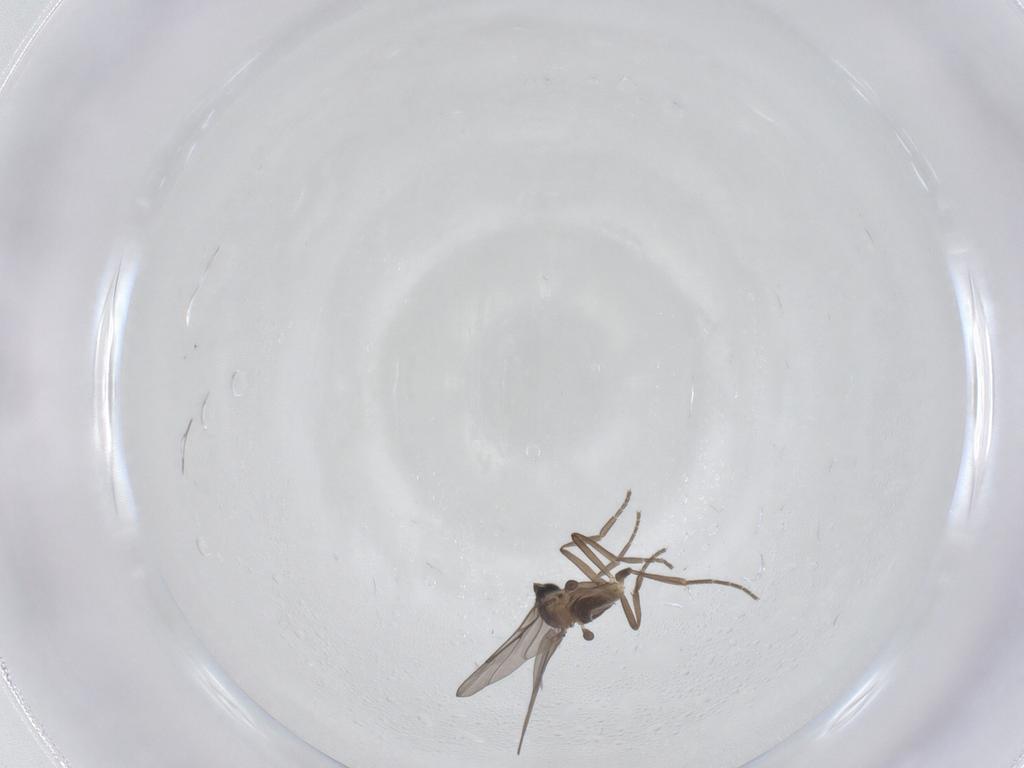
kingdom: Animalia
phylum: Arthropoda
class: Insecta
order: Diptera
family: Phoridae
